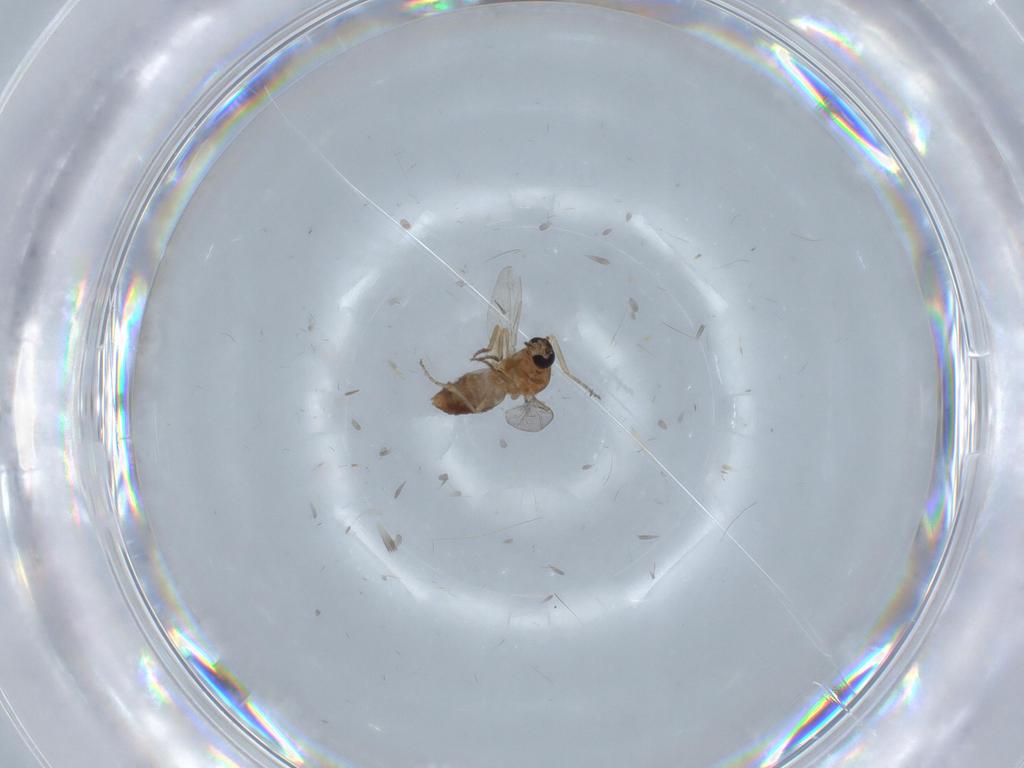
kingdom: Animalia
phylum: Arthropoda
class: Insecta
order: Diptera
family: Ceratopogonidae
